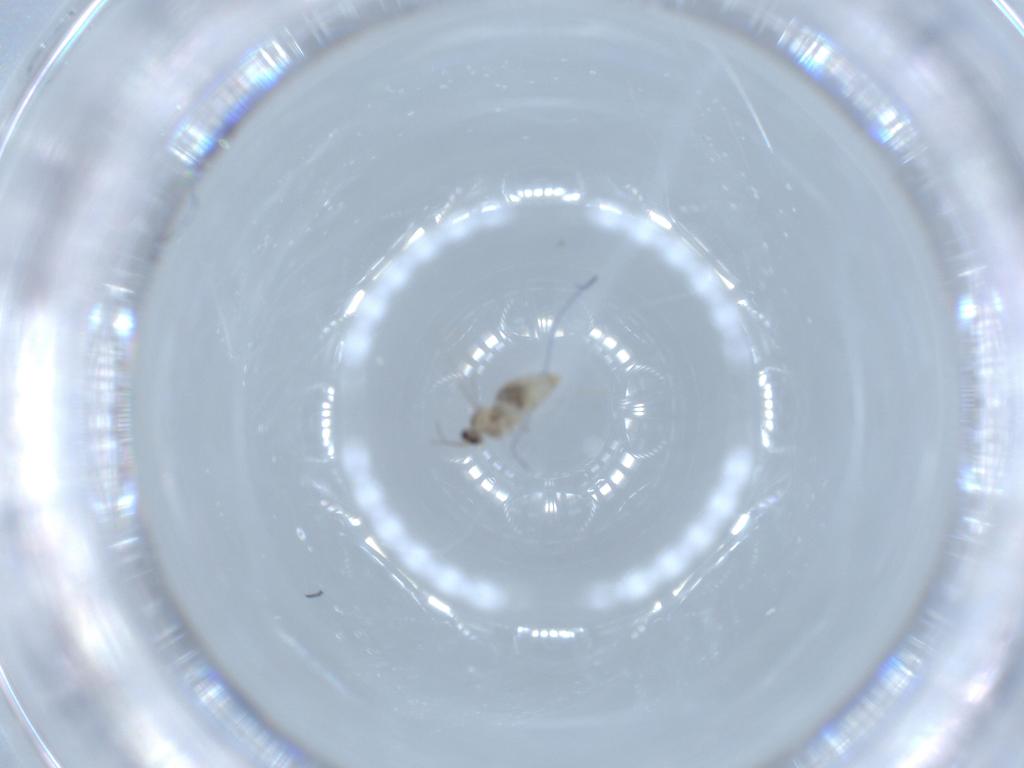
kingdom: Animalia
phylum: Arthropoda
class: Insecta
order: Diptera
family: Cecidomyiidae
